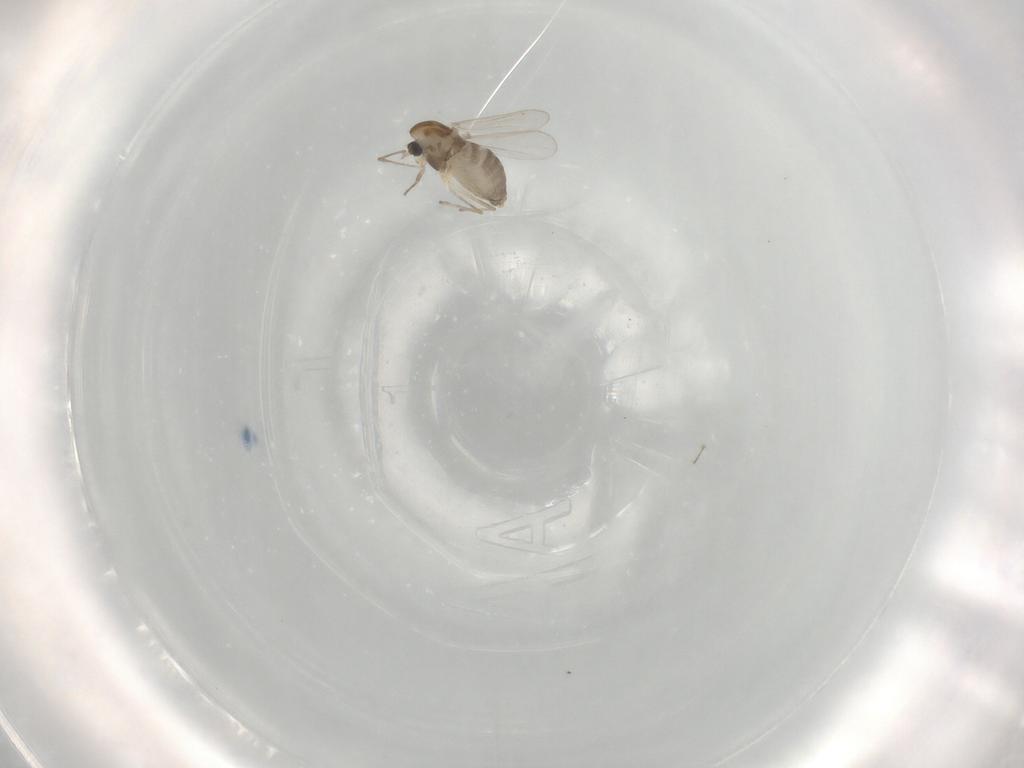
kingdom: Animalia
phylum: Arthropoda
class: Insecta
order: Diptera
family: Chironomidae
